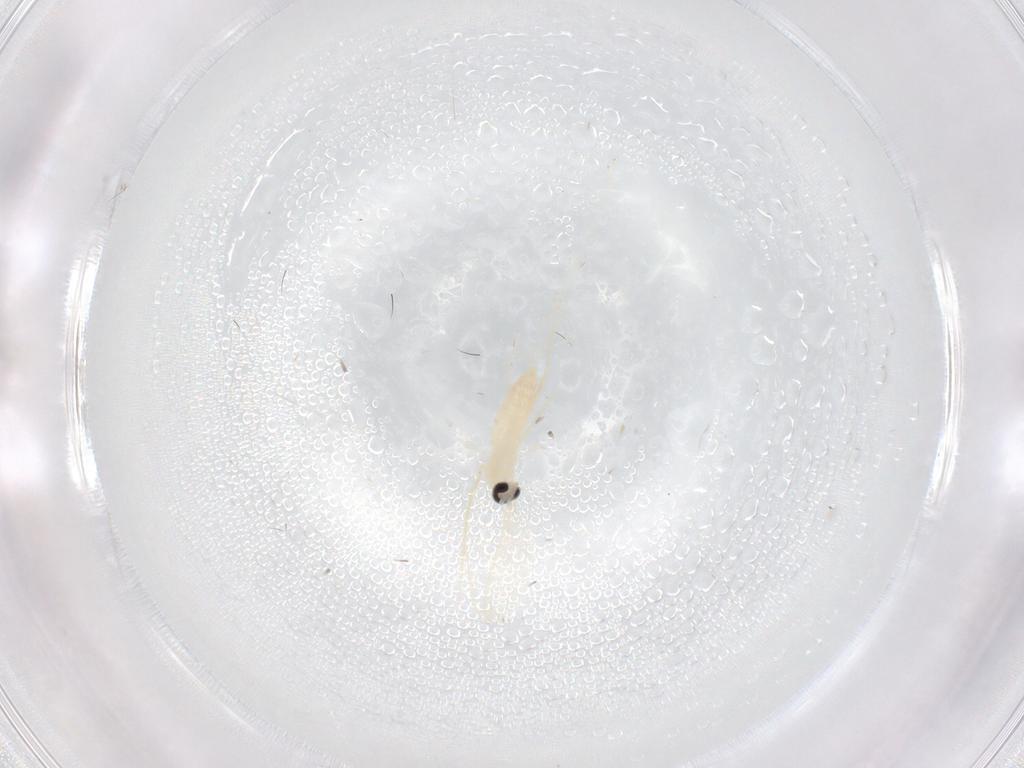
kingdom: Animalia
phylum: Arthropoda
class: Insecta
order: Diptera
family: Cecidomyiidae
